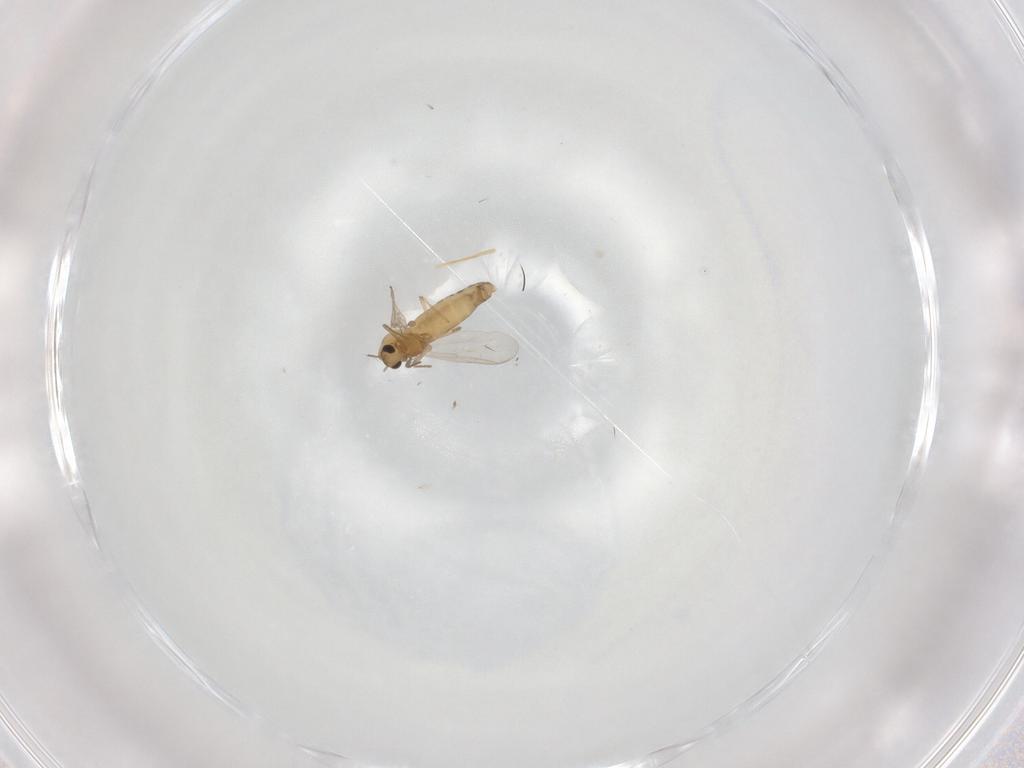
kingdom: Animalia
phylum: Arthropoda
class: Insecta
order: Diptera
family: Chironomidae
